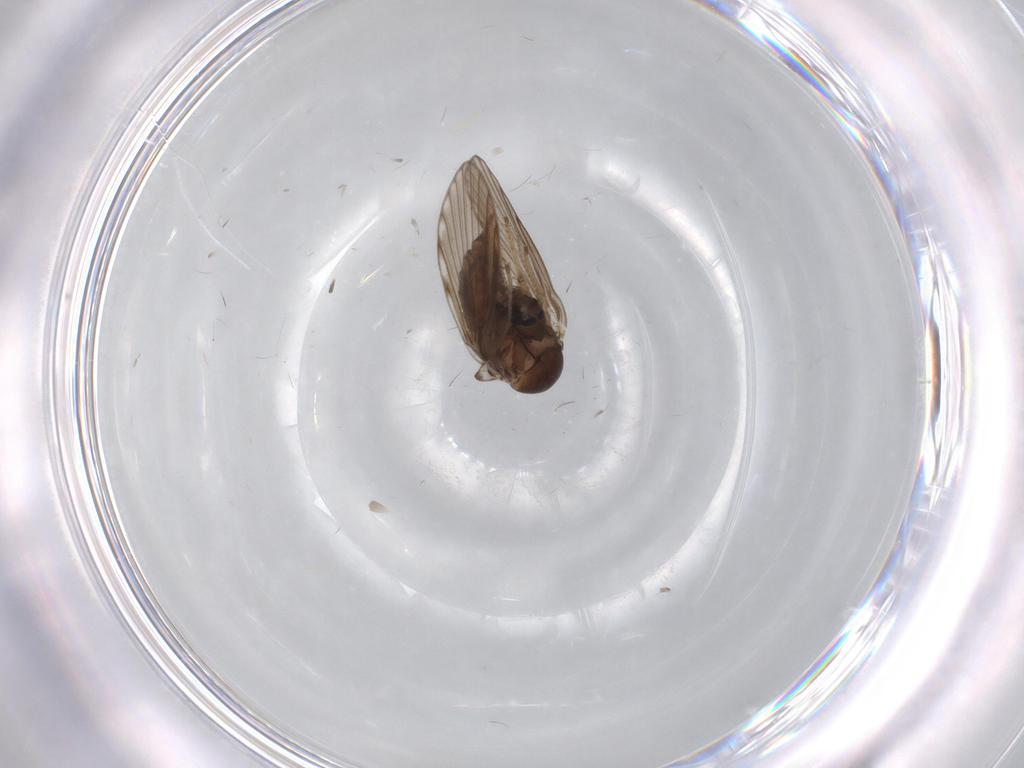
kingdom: Animalia
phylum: Arthropoda
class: Insecta
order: Diptera
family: Psychodidae
